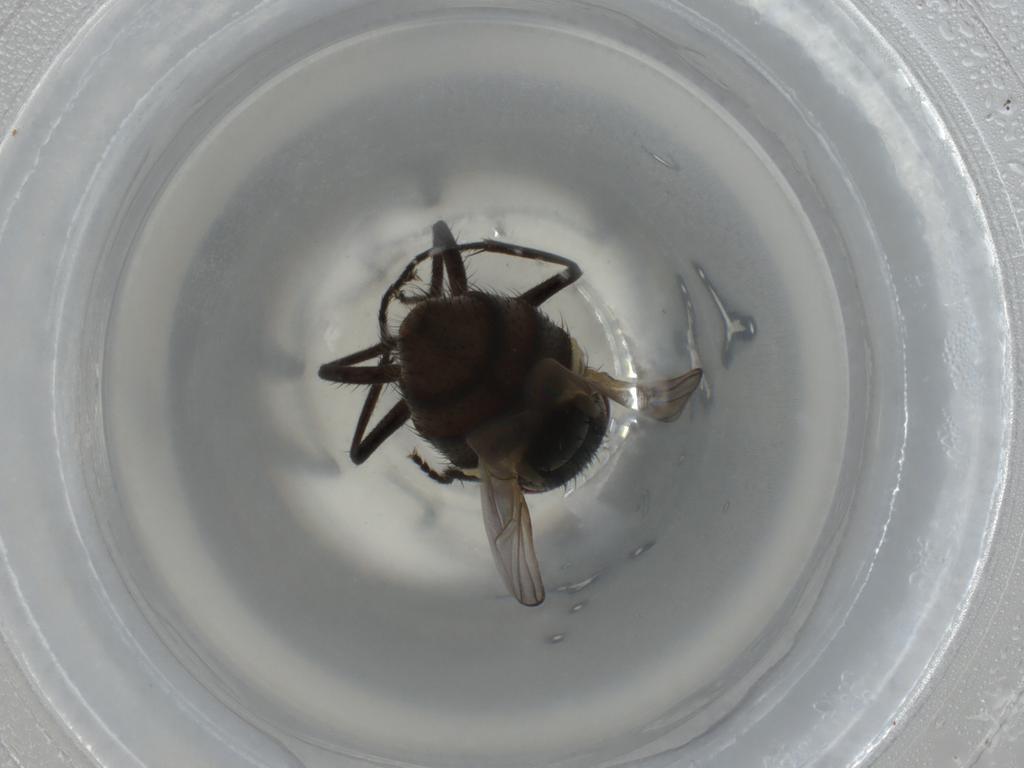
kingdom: Animalia
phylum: Arthropoda
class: Insecta
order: Diptera
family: Muscidae
